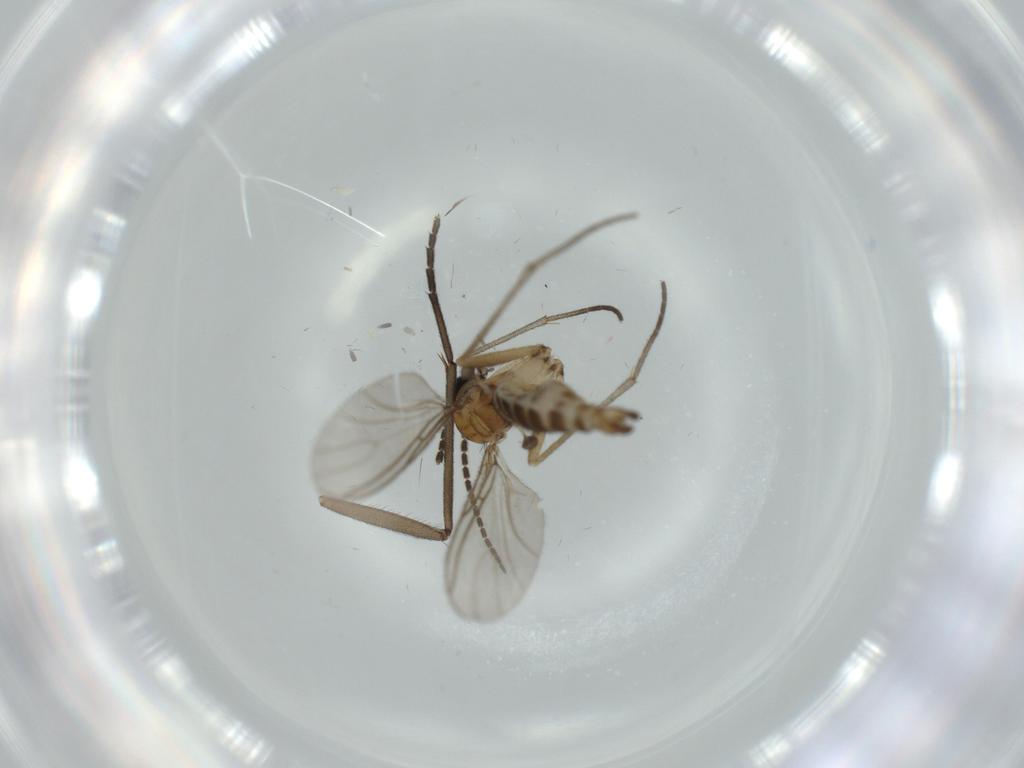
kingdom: Animalia
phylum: Arthropoda
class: Insecta
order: Diptera
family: Sciaridae
